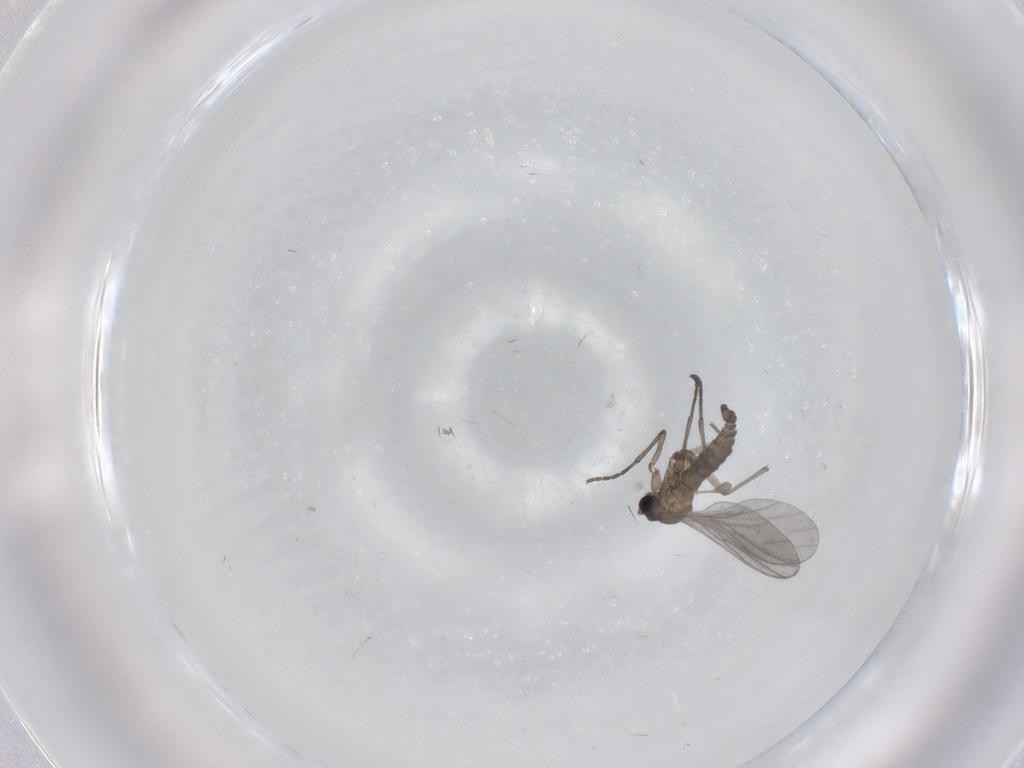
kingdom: Animalia
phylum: Arthropoda
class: Insecta
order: Diptera
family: Sciaridae
